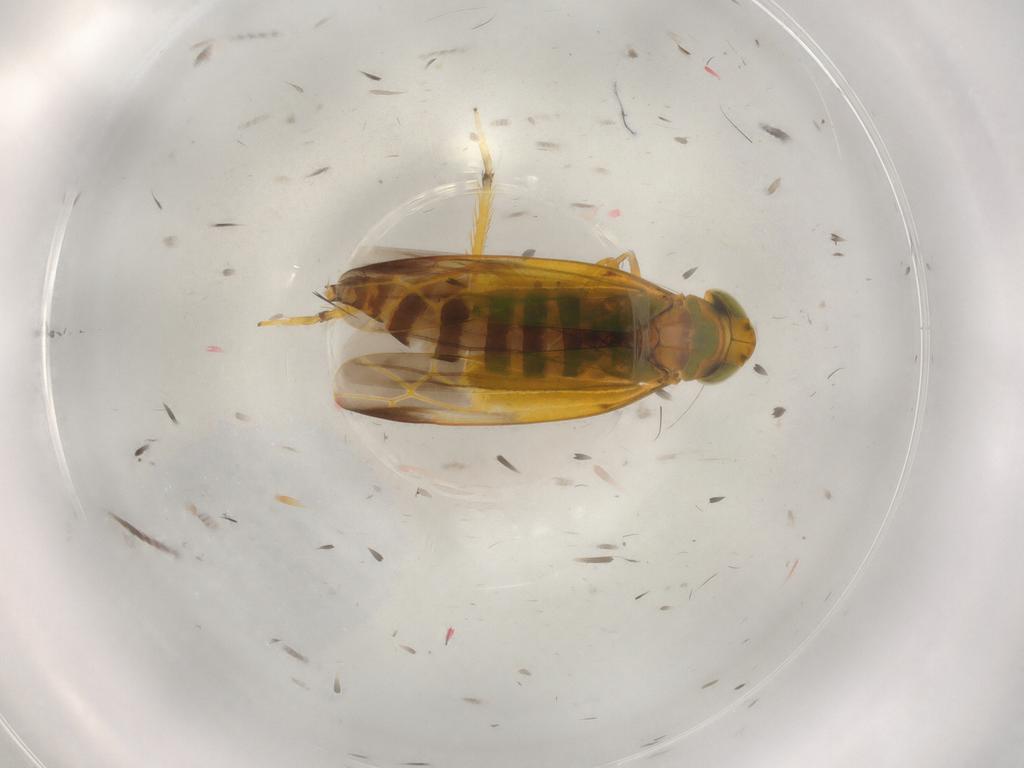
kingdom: Animalia
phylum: Arthropoda
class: Insecta
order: Hemiptera
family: Cicadellidae
